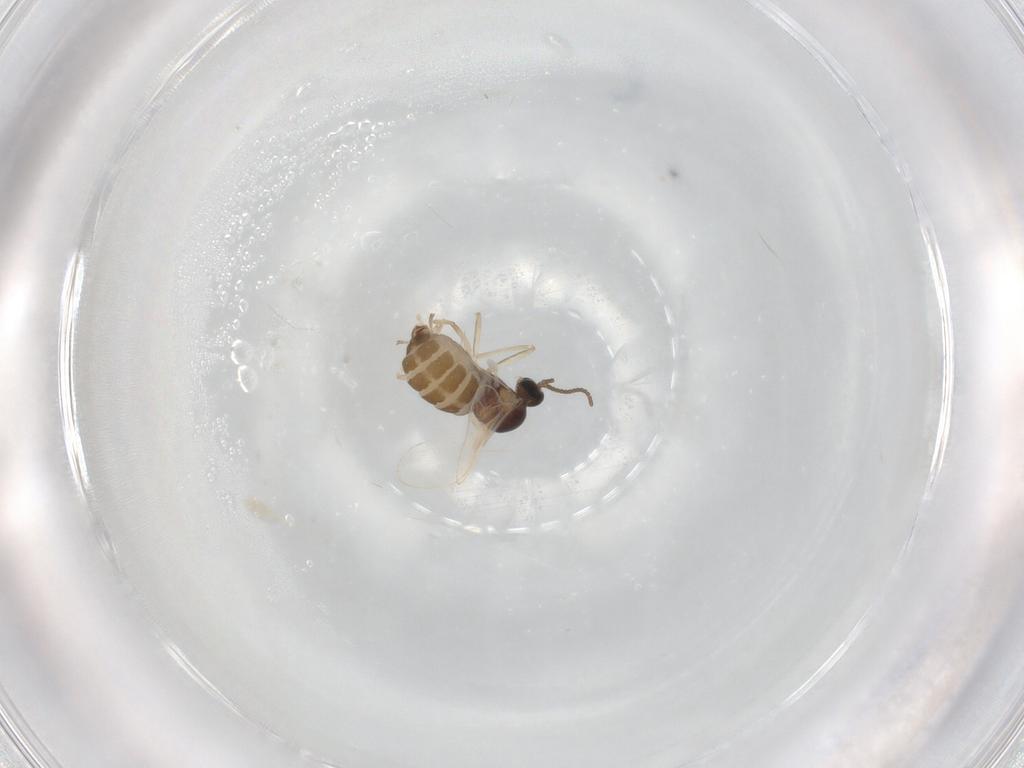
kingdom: Animalia
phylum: Arthropoda
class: Insecta
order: Diptera
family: Cecidomyiidae
